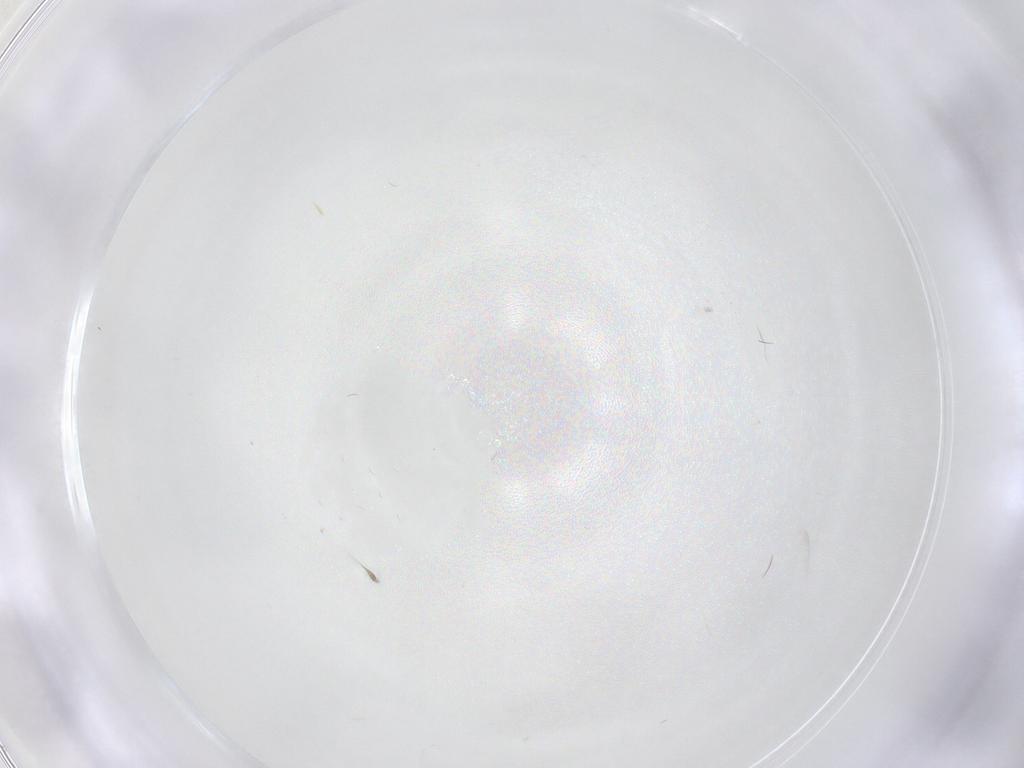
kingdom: Animalia
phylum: Arthropoda
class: Insecta
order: Diptera
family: Cecidomyiidae
